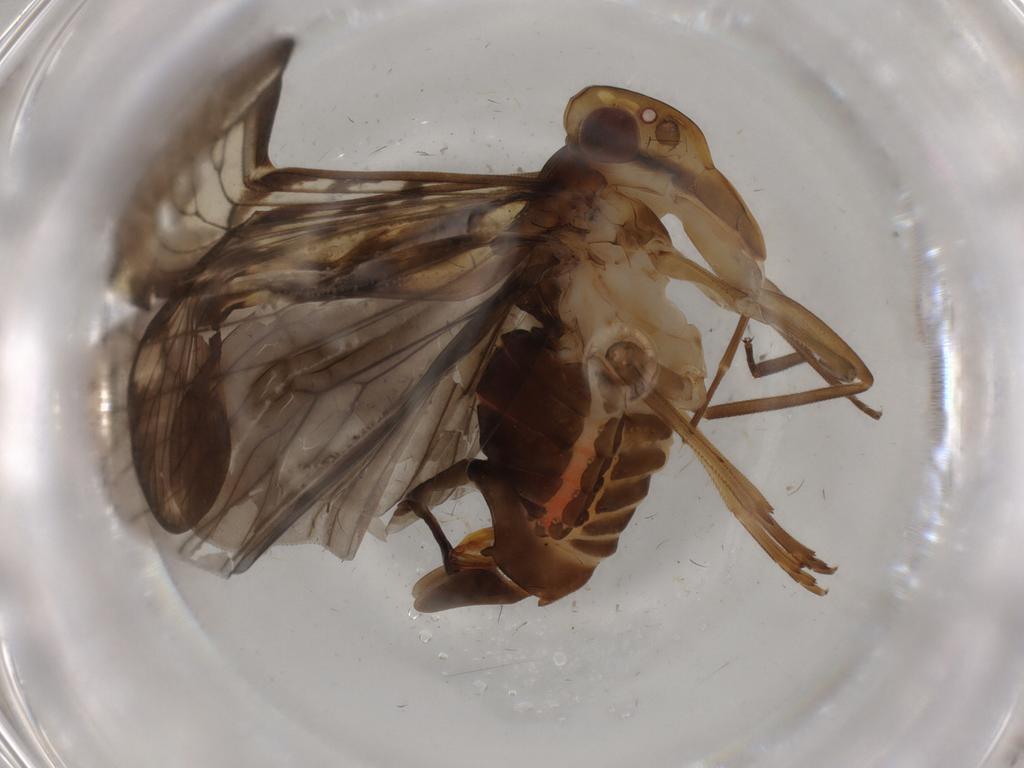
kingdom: Animalia
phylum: Arthropoda
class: Insecta
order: Hemiptera
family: Cixiidae
